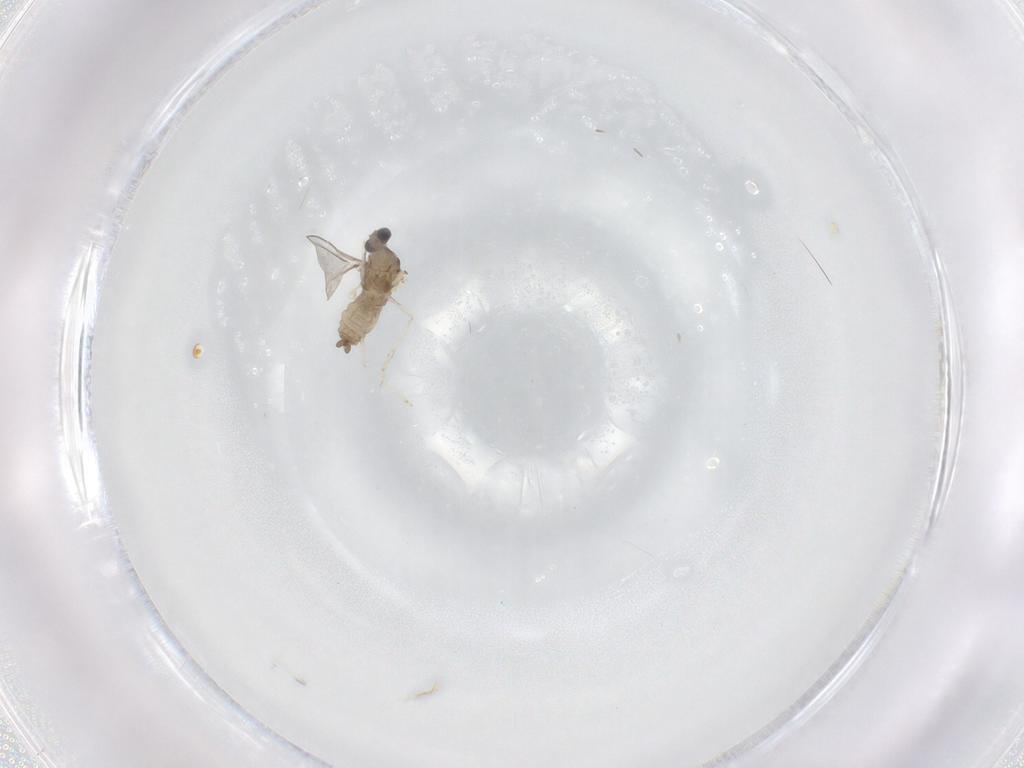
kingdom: Animalia
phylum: Arthropoda
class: Insecta
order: Diptera
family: Cecidomyiidae
